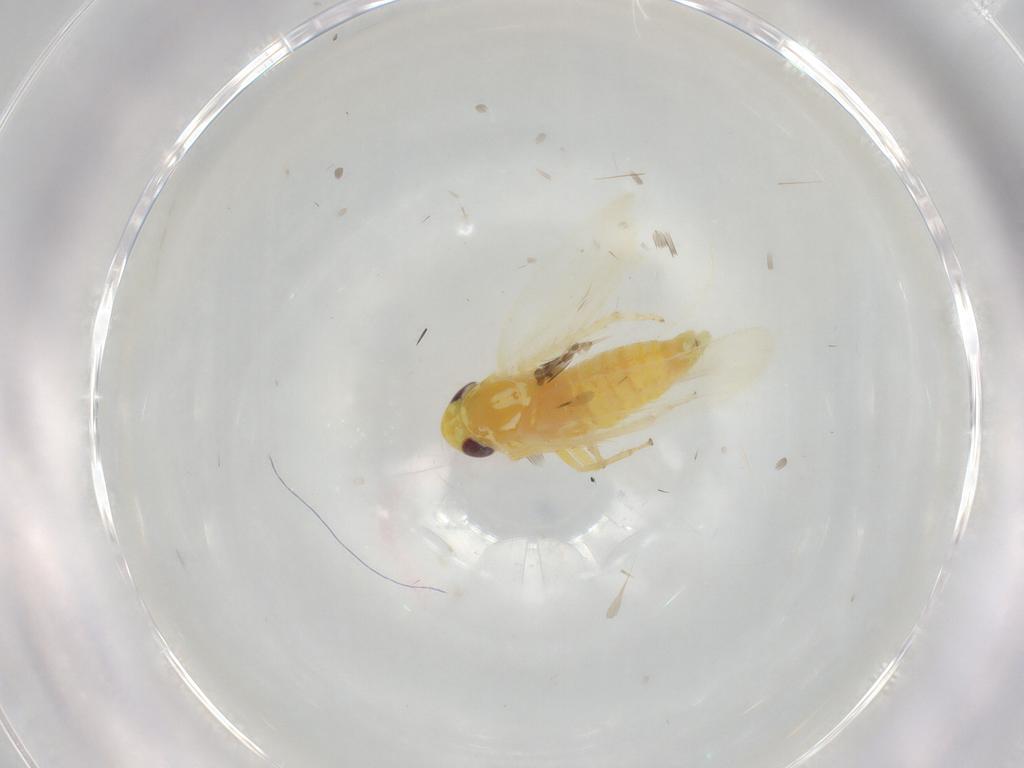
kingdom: Animalia
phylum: Arthropoda
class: Insecta
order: Hemiptera
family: Cicadellidae
